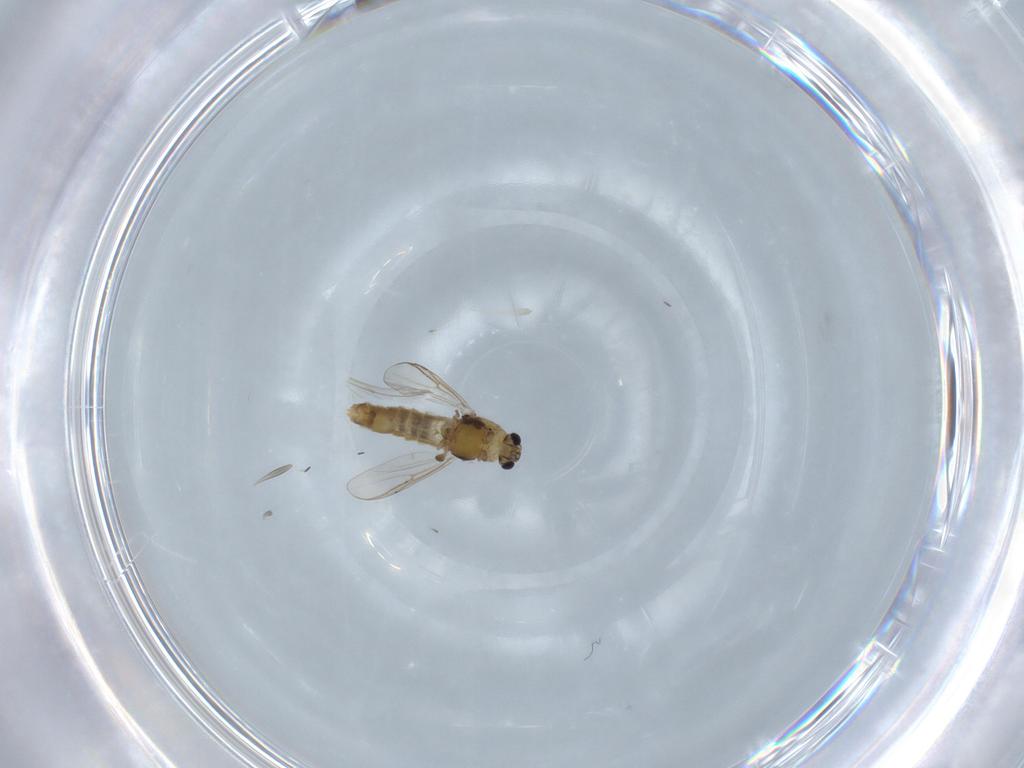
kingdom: Animalia
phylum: Arthropoda
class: Insecta
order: Diptera
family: Chironomidae
